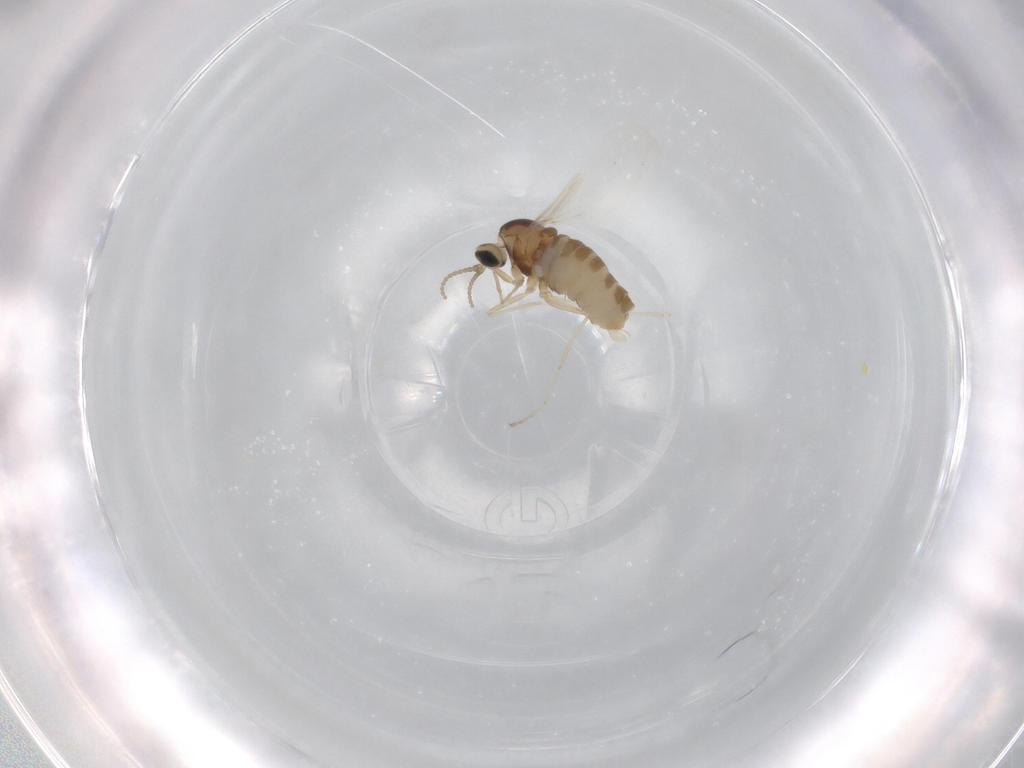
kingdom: Animalia
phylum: Arthropoda
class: Insecta
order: Diptera
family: Cecidomyiidae
